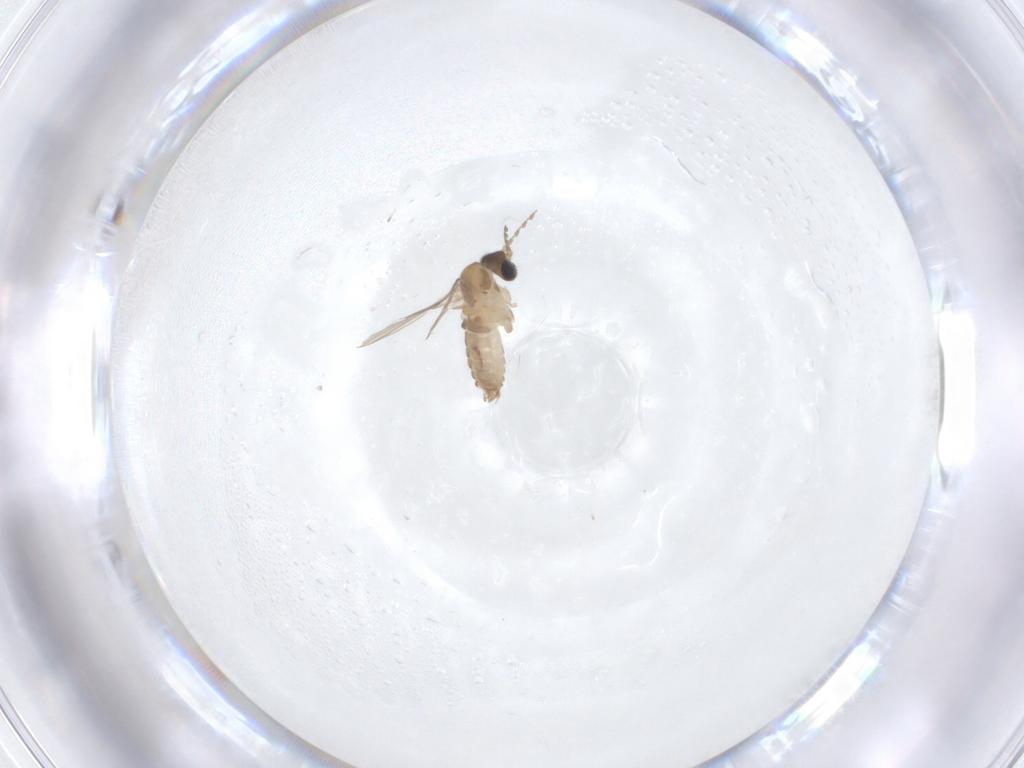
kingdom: Animalia
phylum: Arthropoda
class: Insecta
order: Diptera
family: Psychodidae
